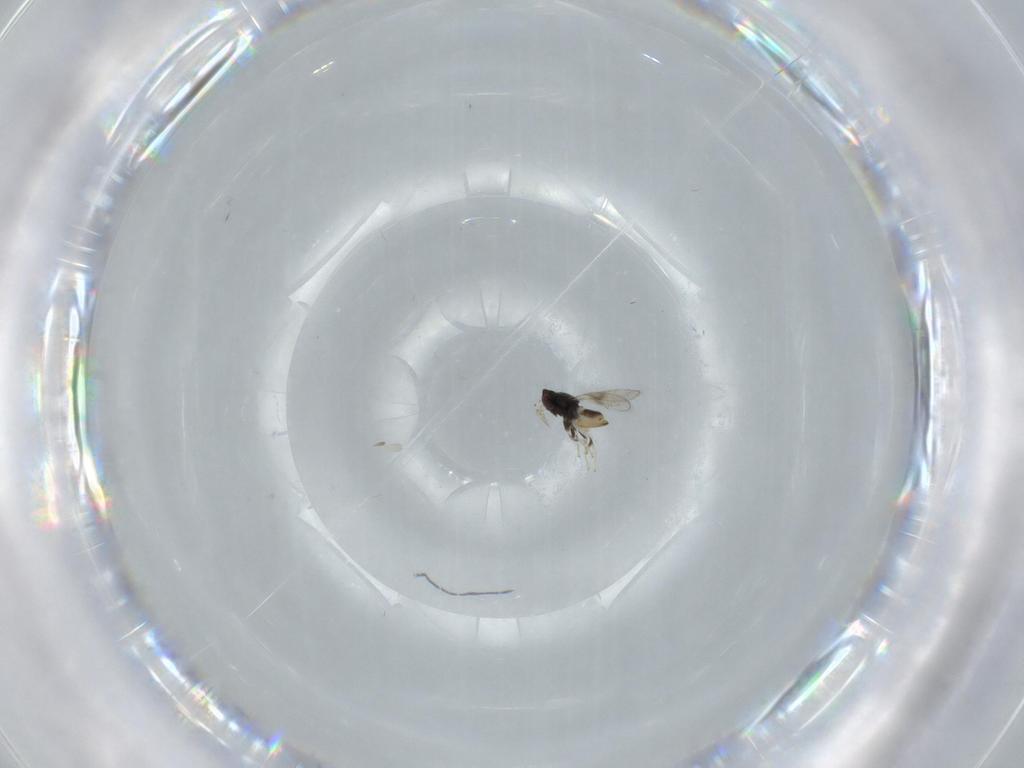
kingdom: Animalia
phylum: Arthropoda
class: Insecta
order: Hymenoptera
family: Eulophidae
